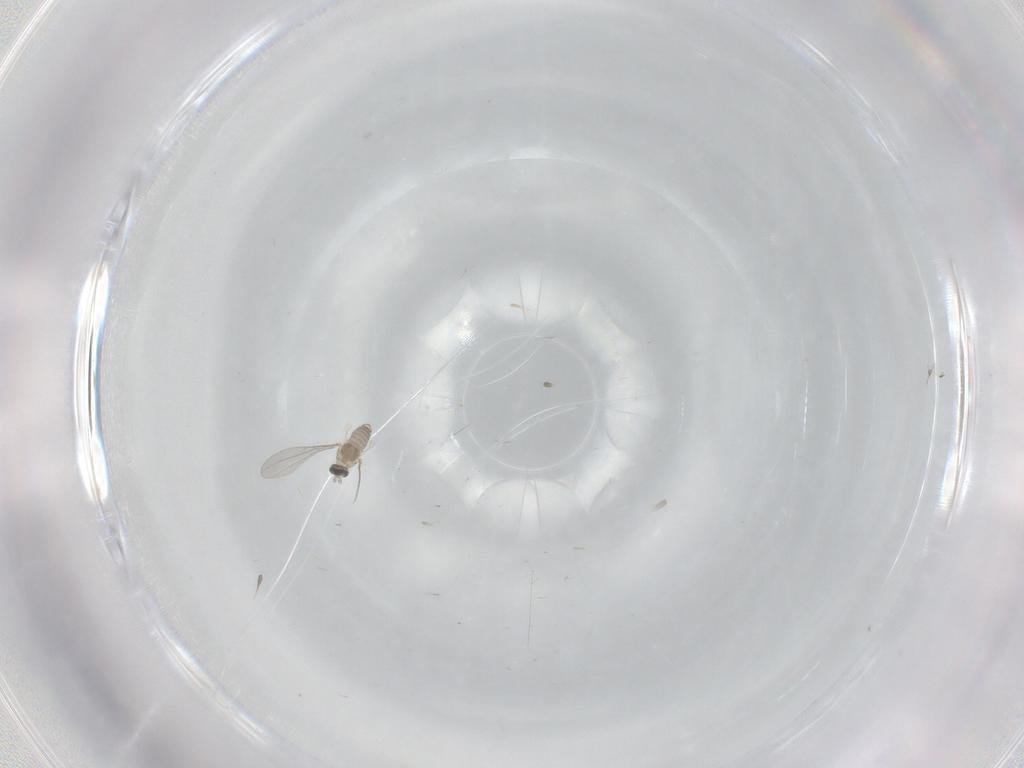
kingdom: Animalia
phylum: Arthropoda
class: Insecta
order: Diptera
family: Cecidomyiidae
